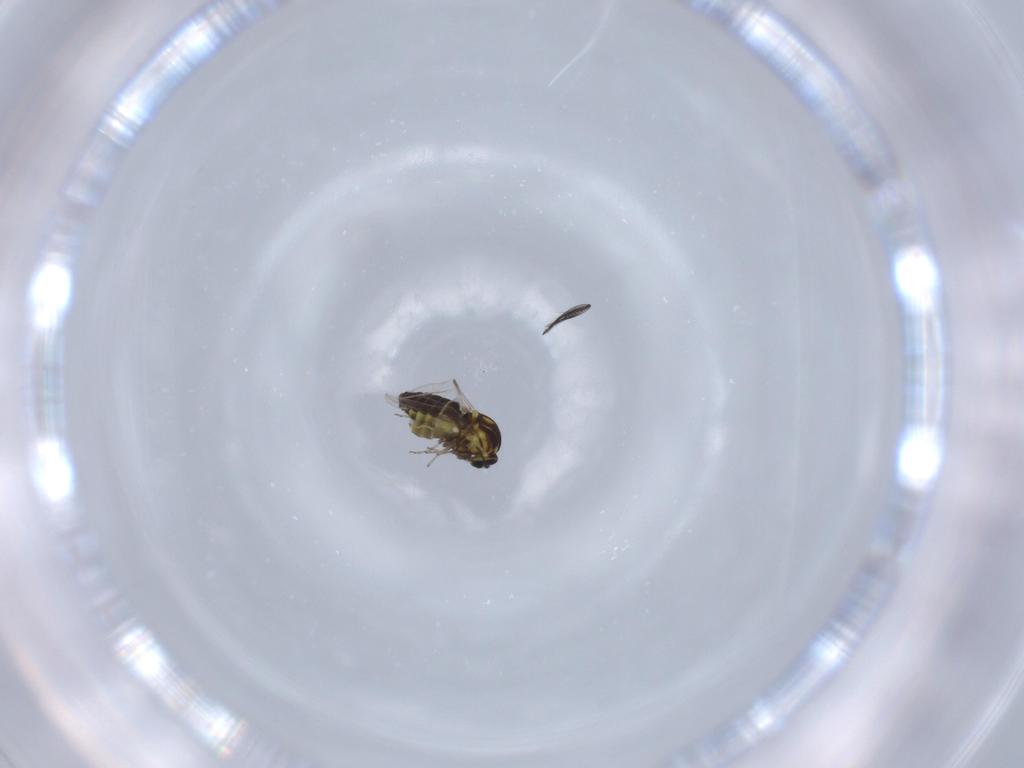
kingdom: Animalia
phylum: Arthropoda
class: Insecta
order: Diptera
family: Ceratopogonidae
